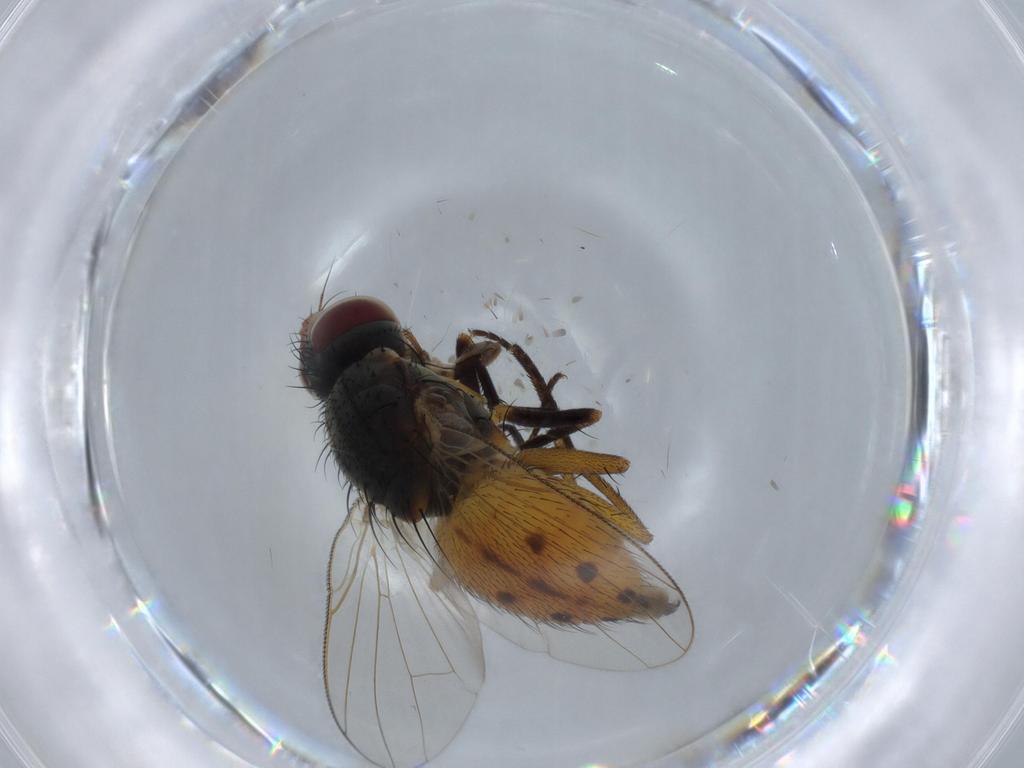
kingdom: Animalia
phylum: Arthropoda
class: Insecta
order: Diptera
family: Muscidae
